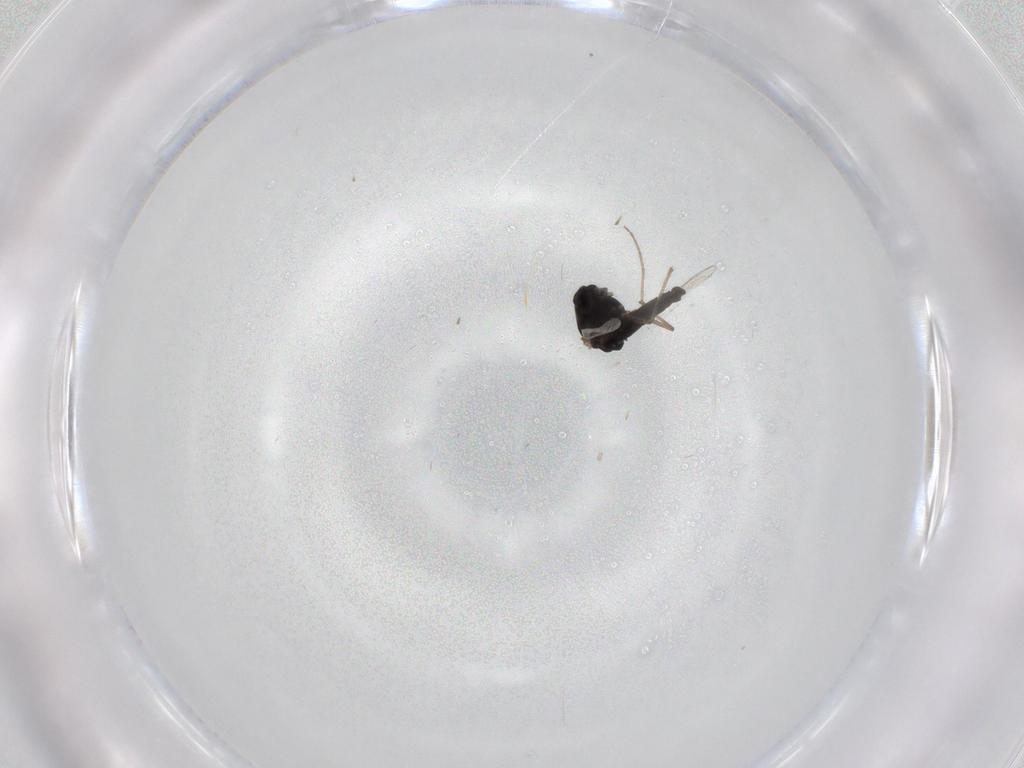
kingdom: Animalia
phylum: Arthropoda
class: Insecta
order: Diptera
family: Chironomidae
